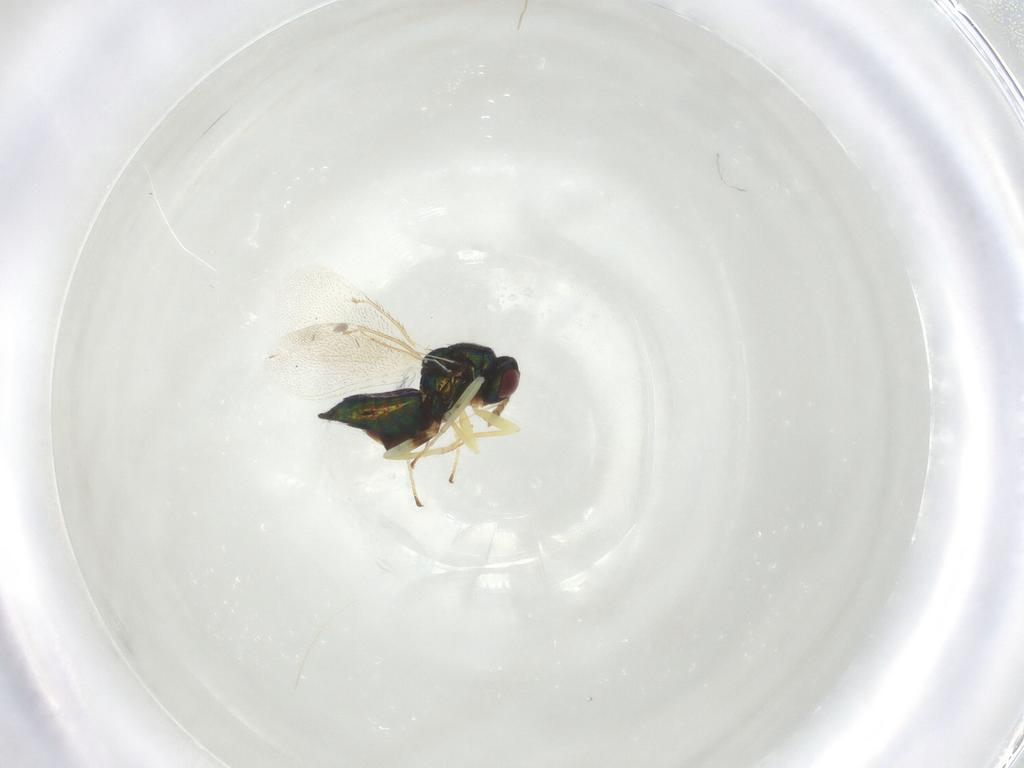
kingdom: Animalia
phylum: Arthropoda
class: Insecta
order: Hymenoptera
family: Eulophidae
